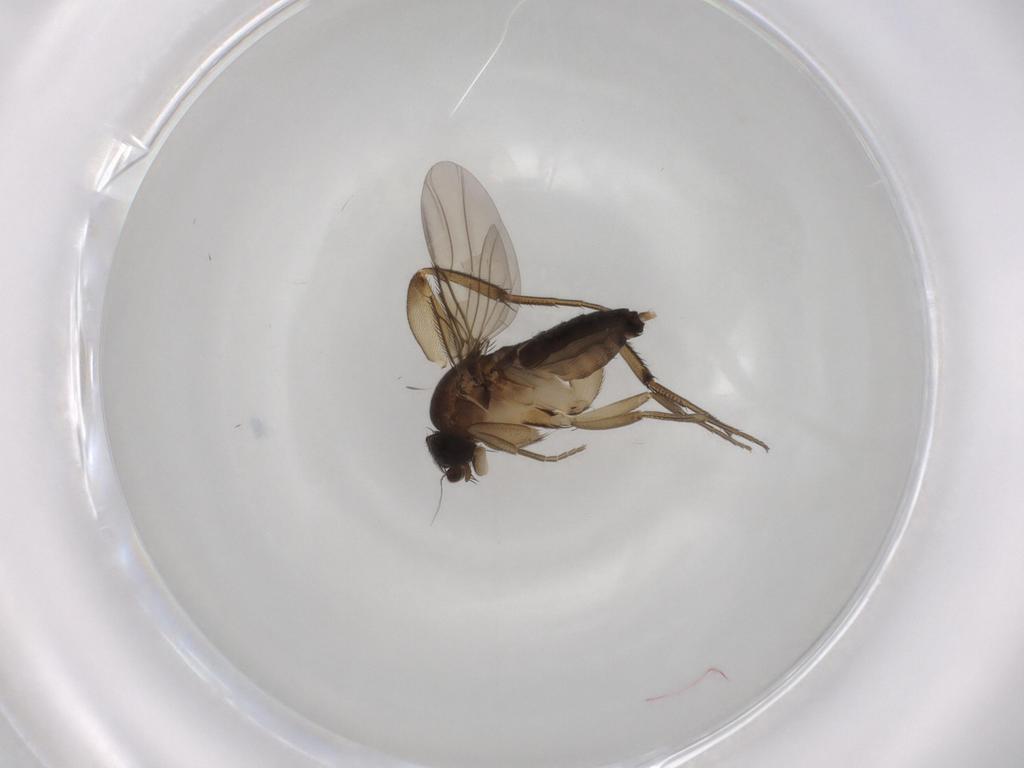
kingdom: Animalia
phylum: Arthropoda
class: Insecta
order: Diptera
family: Phoridae
